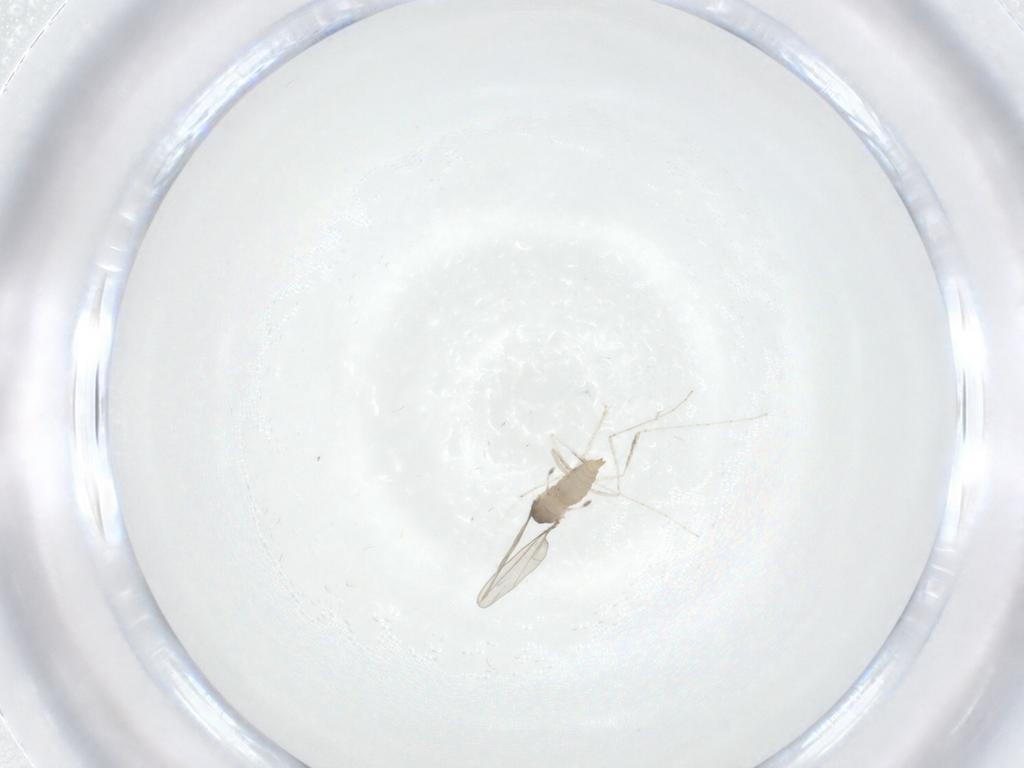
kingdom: Animalia
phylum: Arthropoda
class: Insecta
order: Diptera
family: Cecidomyiidae
